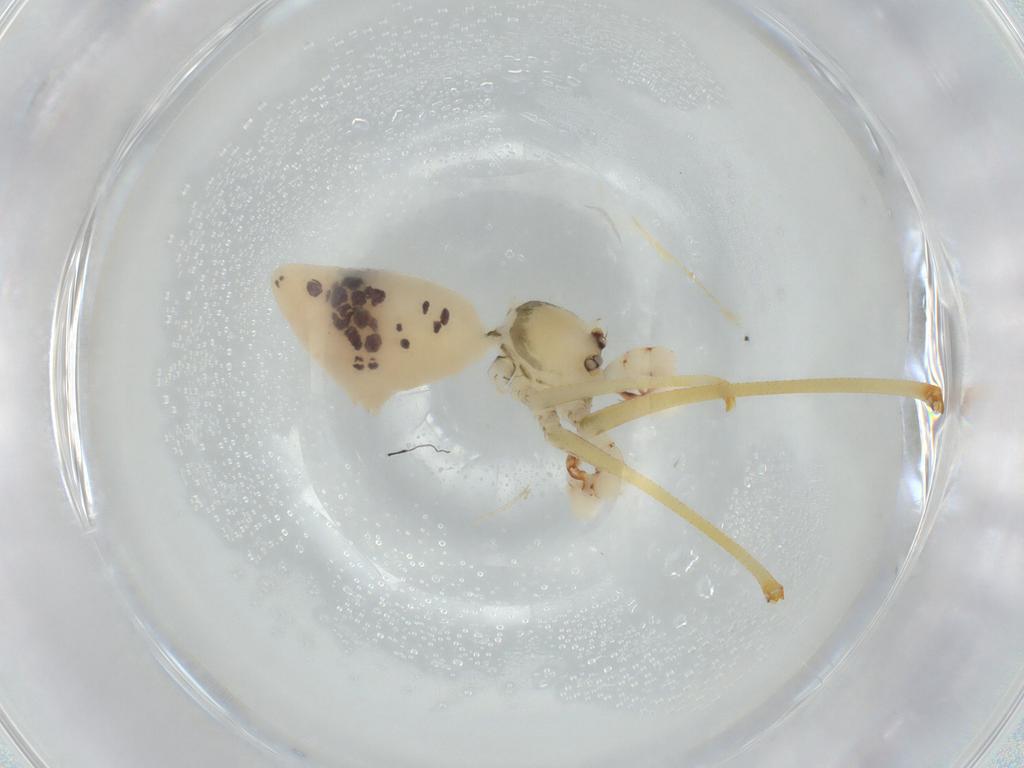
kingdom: Animalia
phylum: Arthropoda
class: Arachnida
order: Araneae
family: Pholcidae
